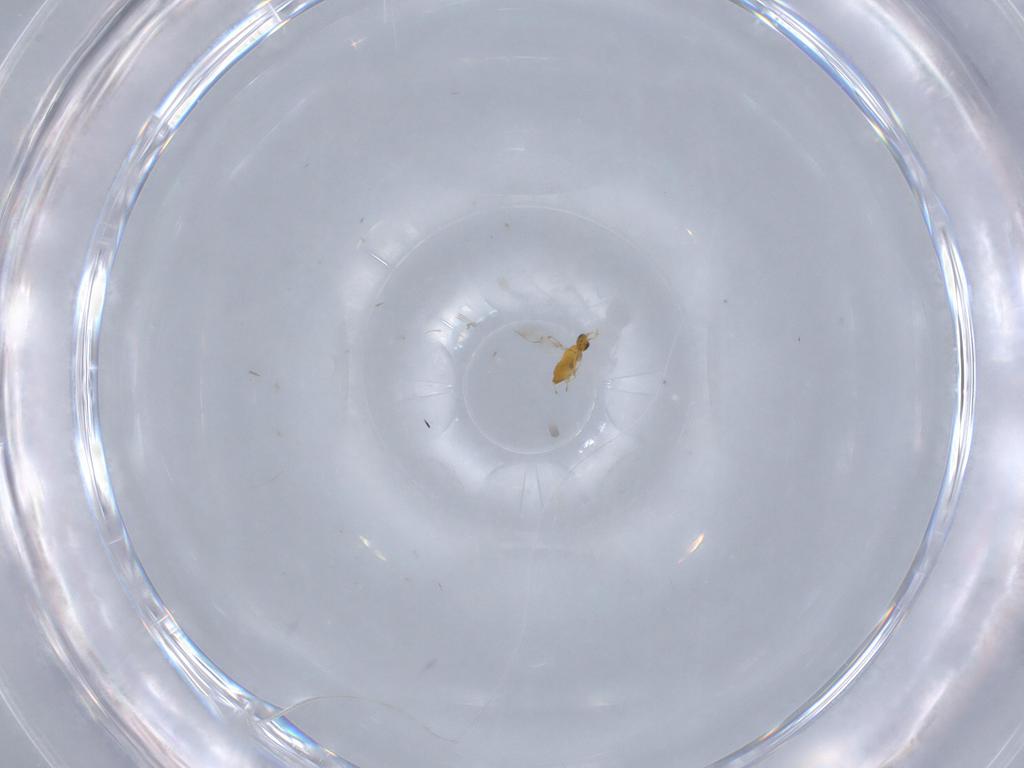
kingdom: Animalia
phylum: Arthropoda
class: Insecta
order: Hymenoptera
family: Trichogrammatidae
